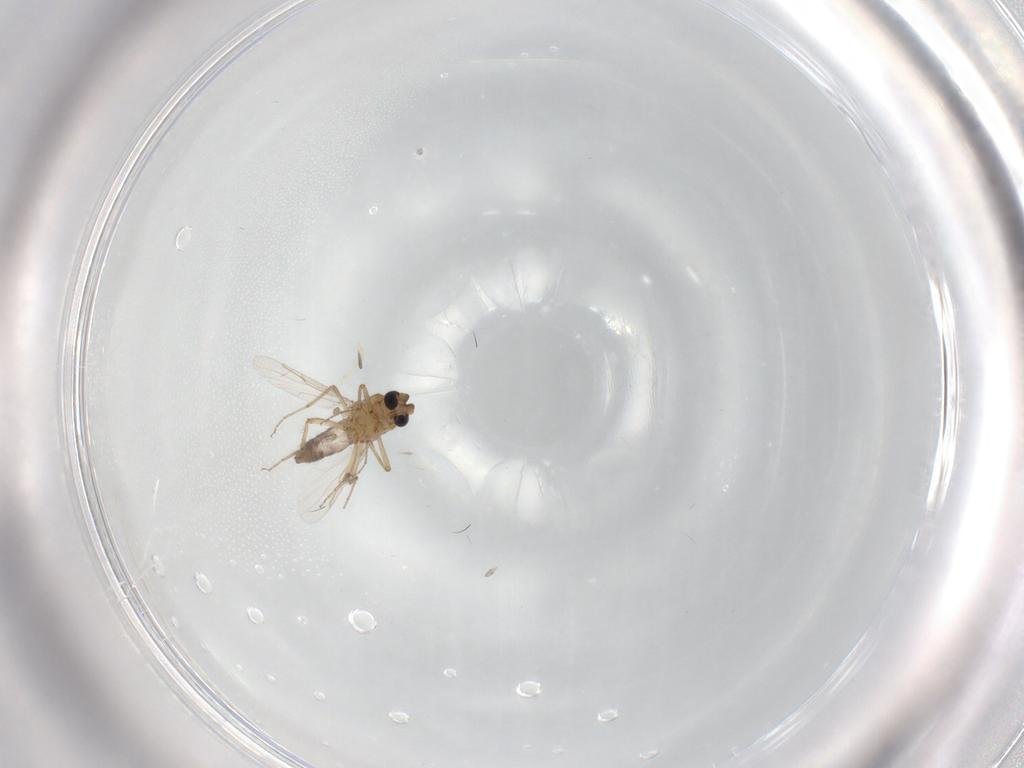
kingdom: Animalia
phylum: Arthropoda
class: Insecta
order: Diptera
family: Ceratopogonidae
